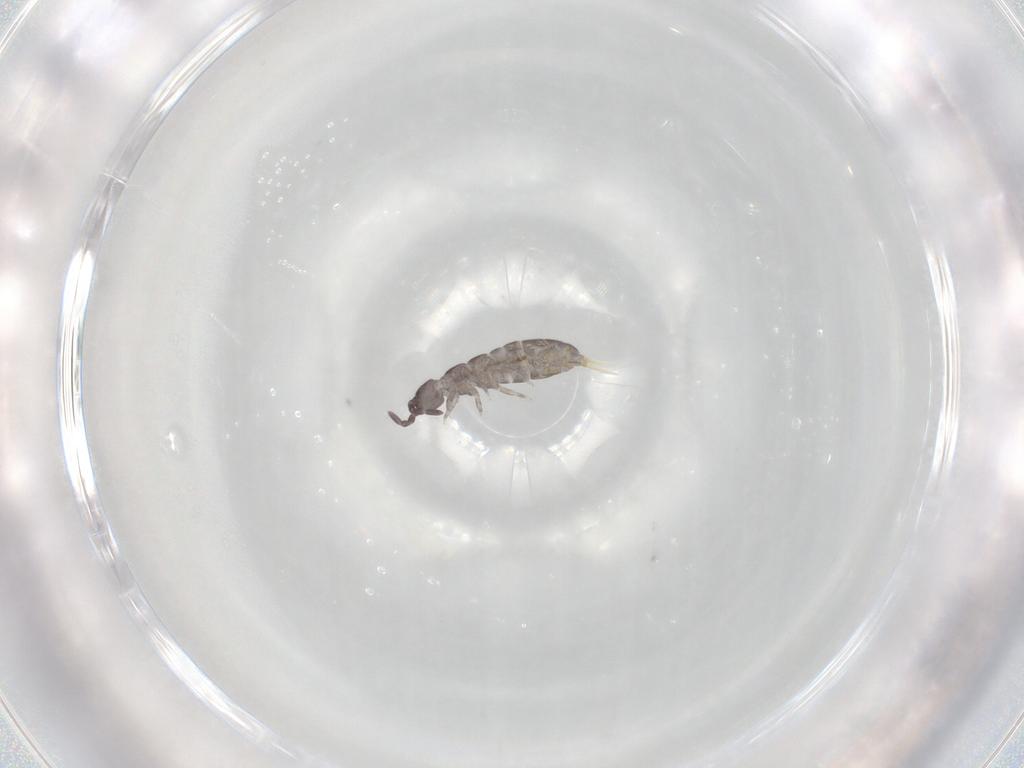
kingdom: Animalia
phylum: Arthropoda
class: Collembola
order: Entomobryomorpha
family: Isotomidae
